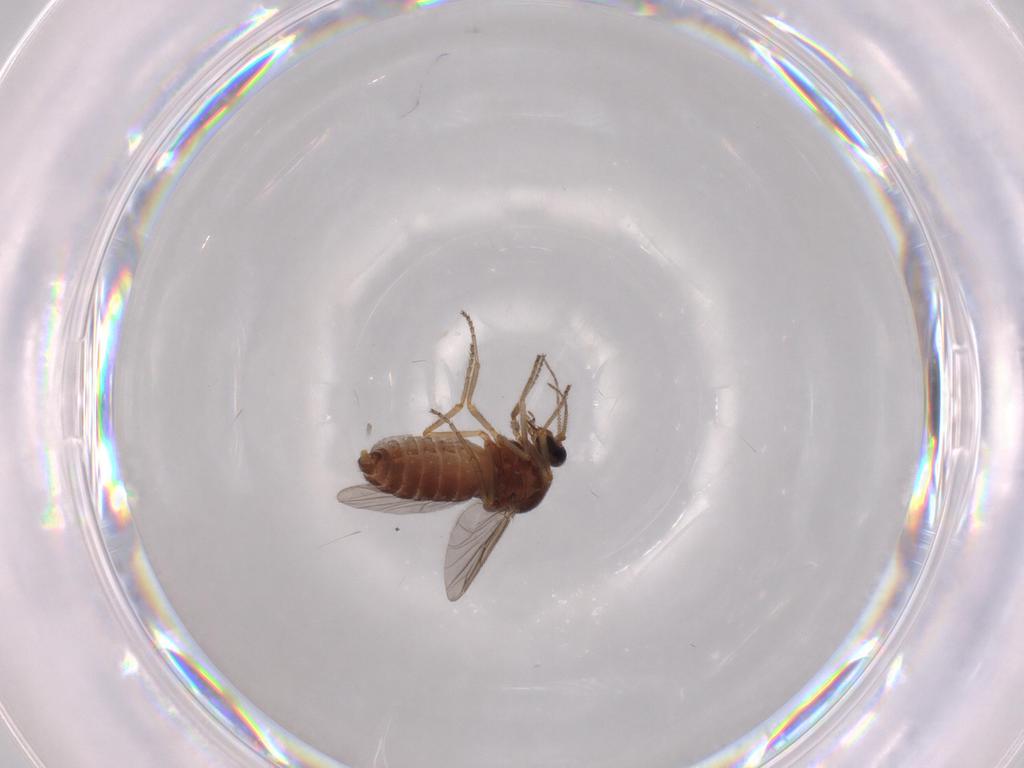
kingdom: Animalia
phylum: Arthropoda
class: Insecta
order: Diptera
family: Ceratopogonidae
